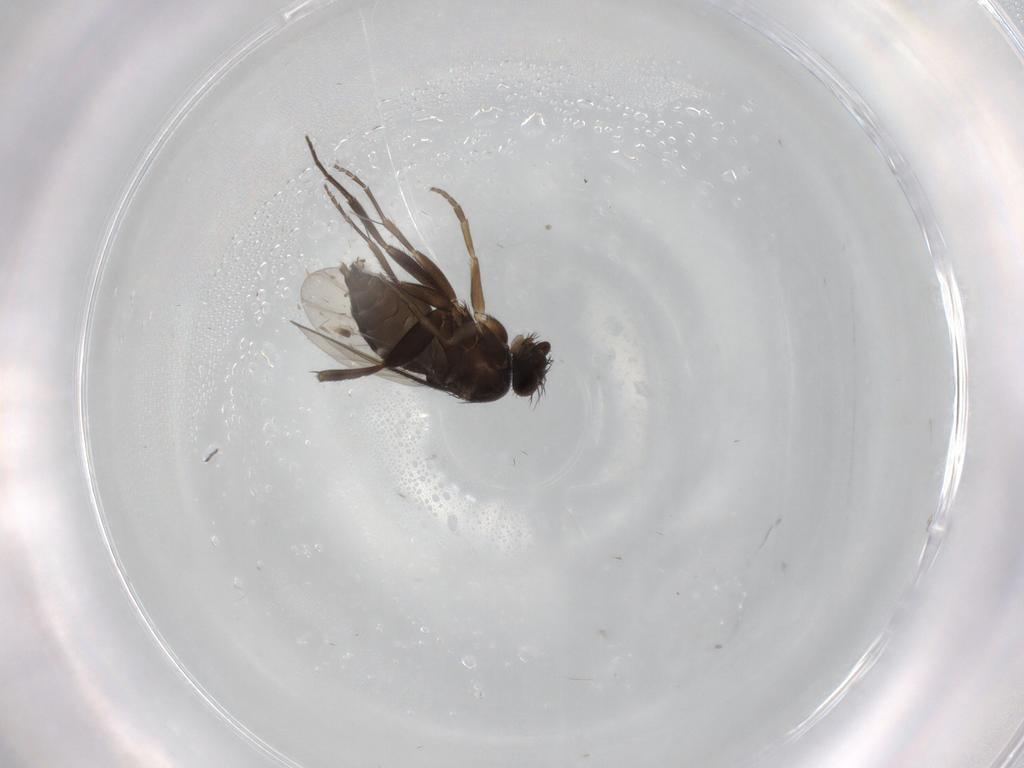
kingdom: Animalia
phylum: Arthropoda
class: Insecta
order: Diptera
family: Phoridae
